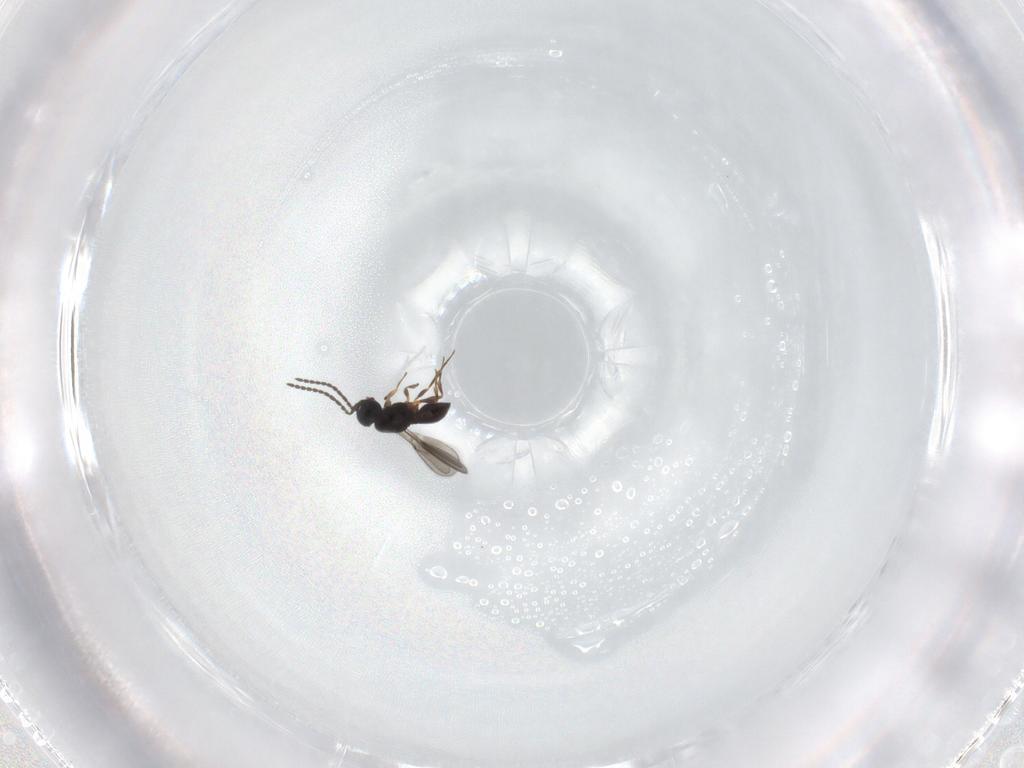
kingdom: Animalia
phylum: Arthropoda
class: Insecta
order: Hymenoptera
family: Scelionidae
